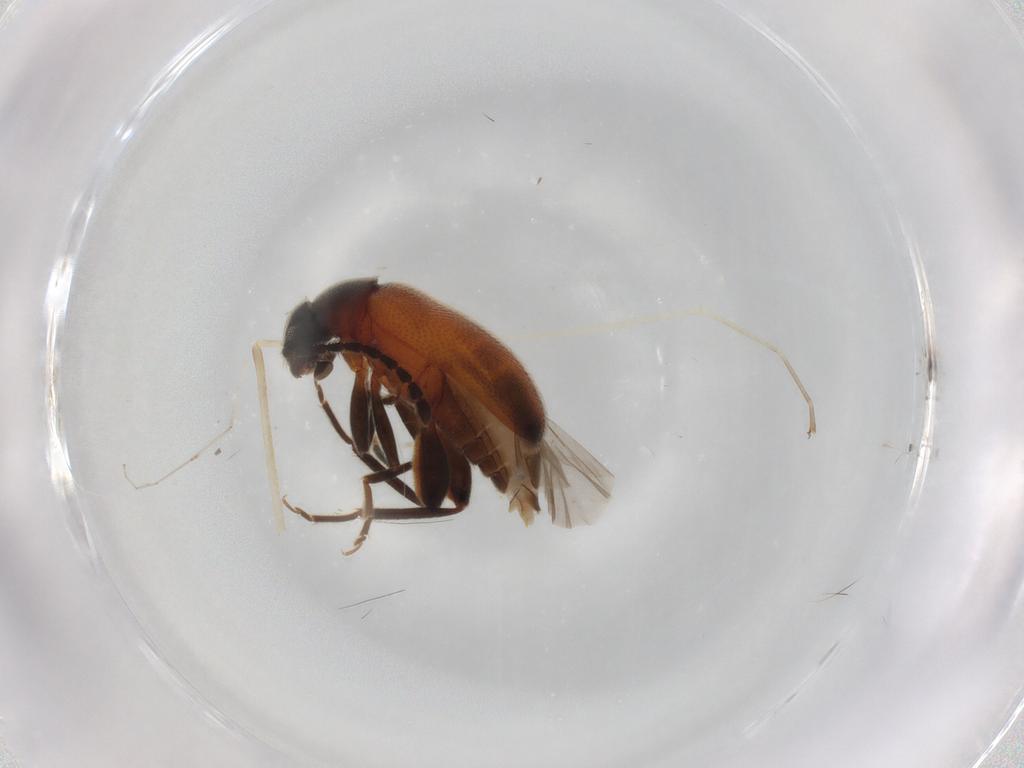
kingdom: Animalia
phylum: Arthropoda
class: Insecta
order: Coleoptera
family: Aderidae
